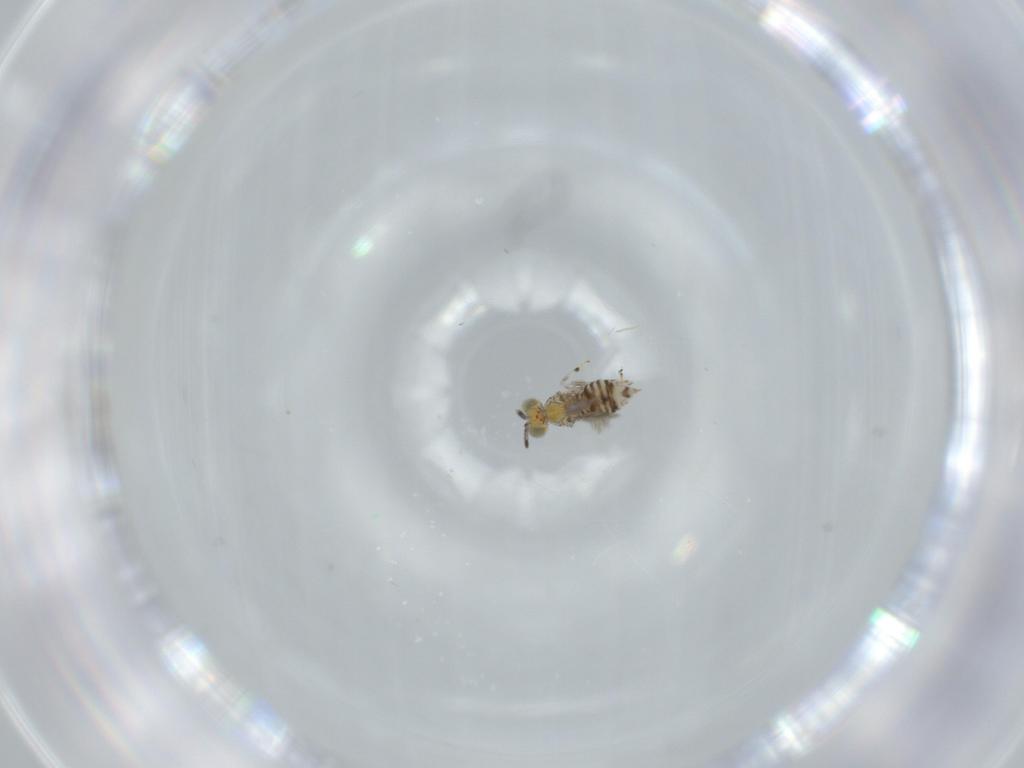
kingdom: Animalia
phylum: Arthropoda
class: Insecta
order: Hymenoptera
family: Aphelinidae
